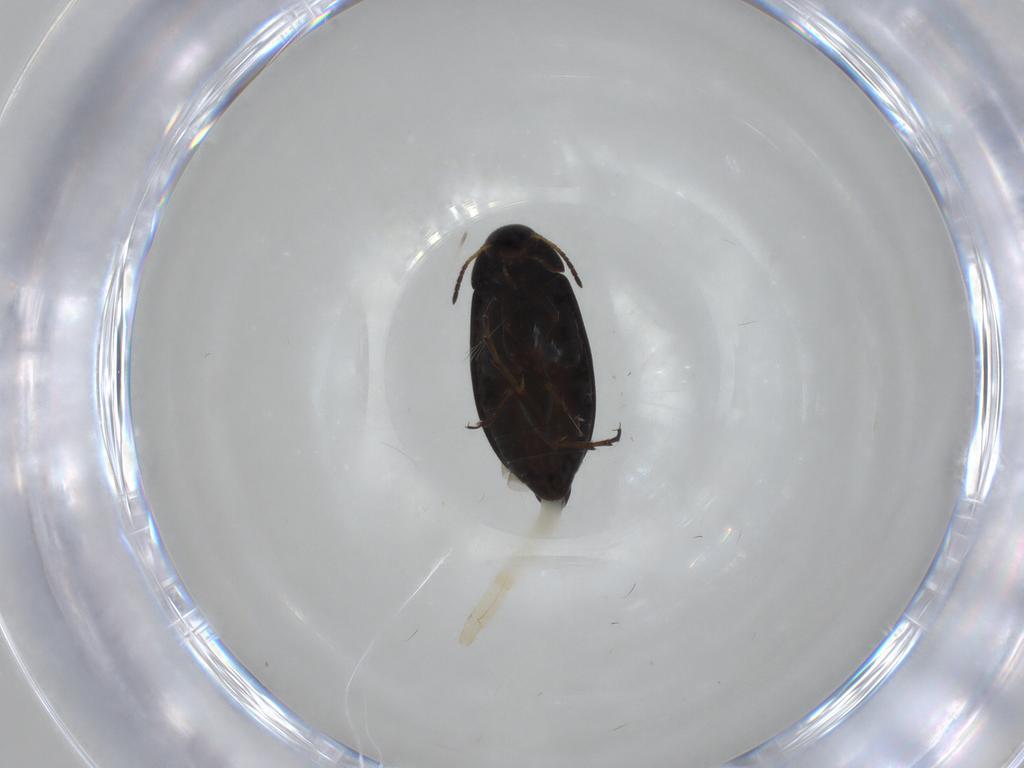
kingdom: Animalia
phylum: Arthropoda
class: Insecta
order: Coleoptera
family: Scraptiidae
